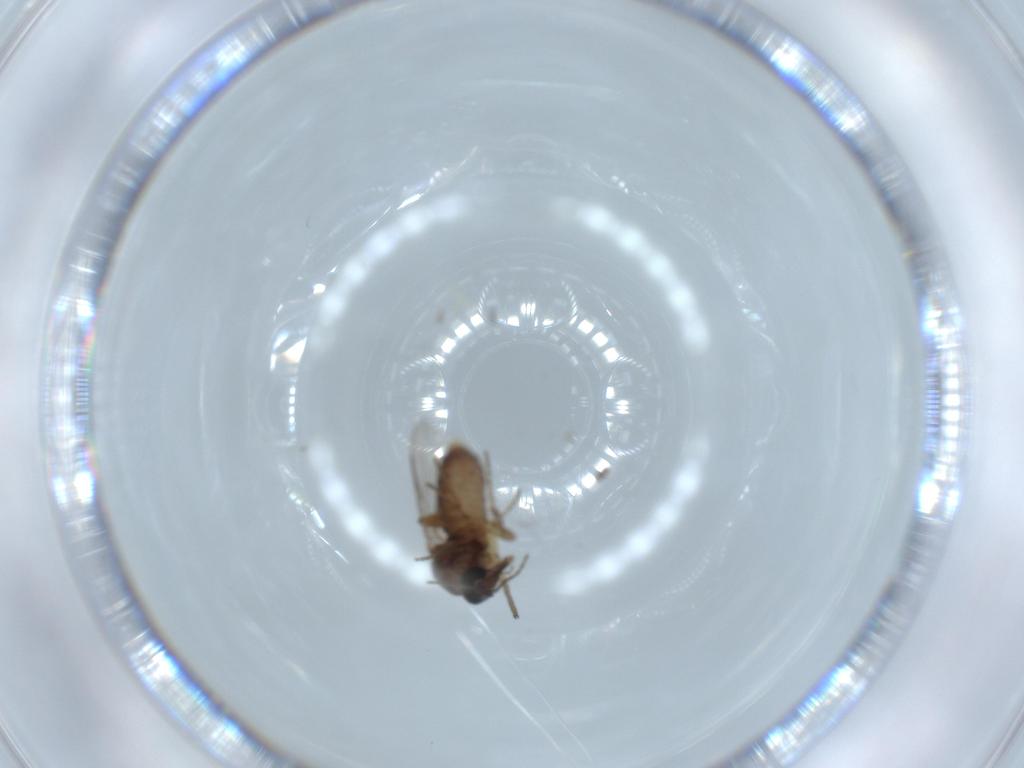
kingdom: Animalia
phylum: Arthropoda
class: Insecta
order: Diptera
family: Ceratopogonidae
